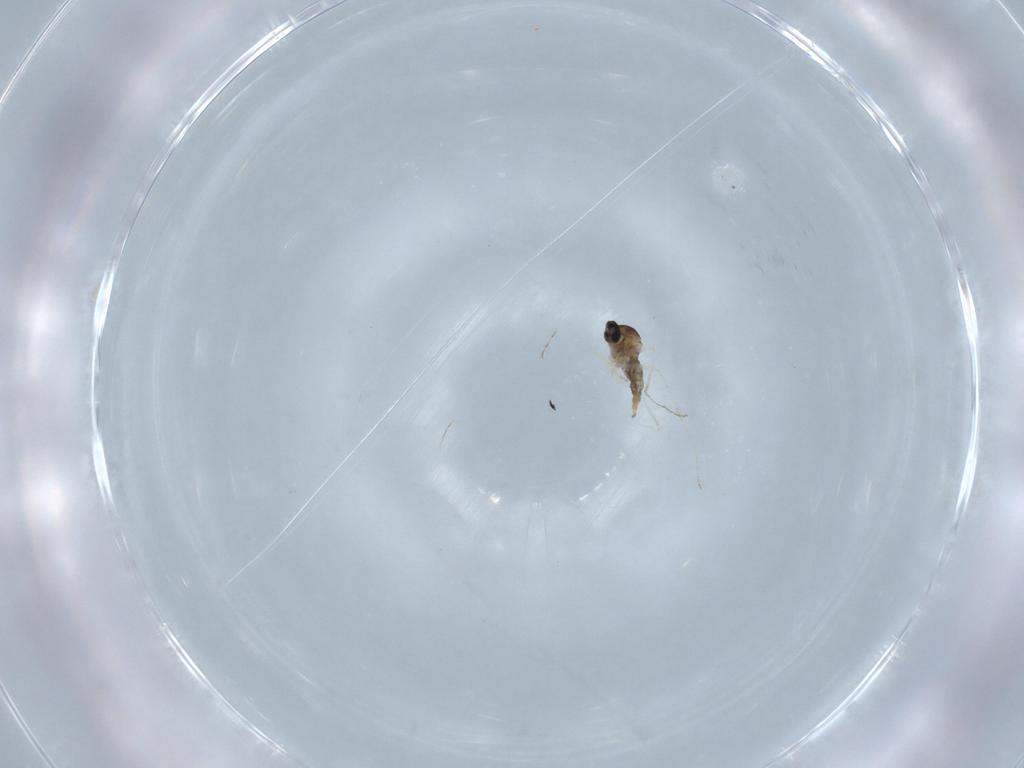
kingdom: Animalia
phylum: Arthropoda
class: Insecta
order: Diptera
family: Cecidomyiidae
